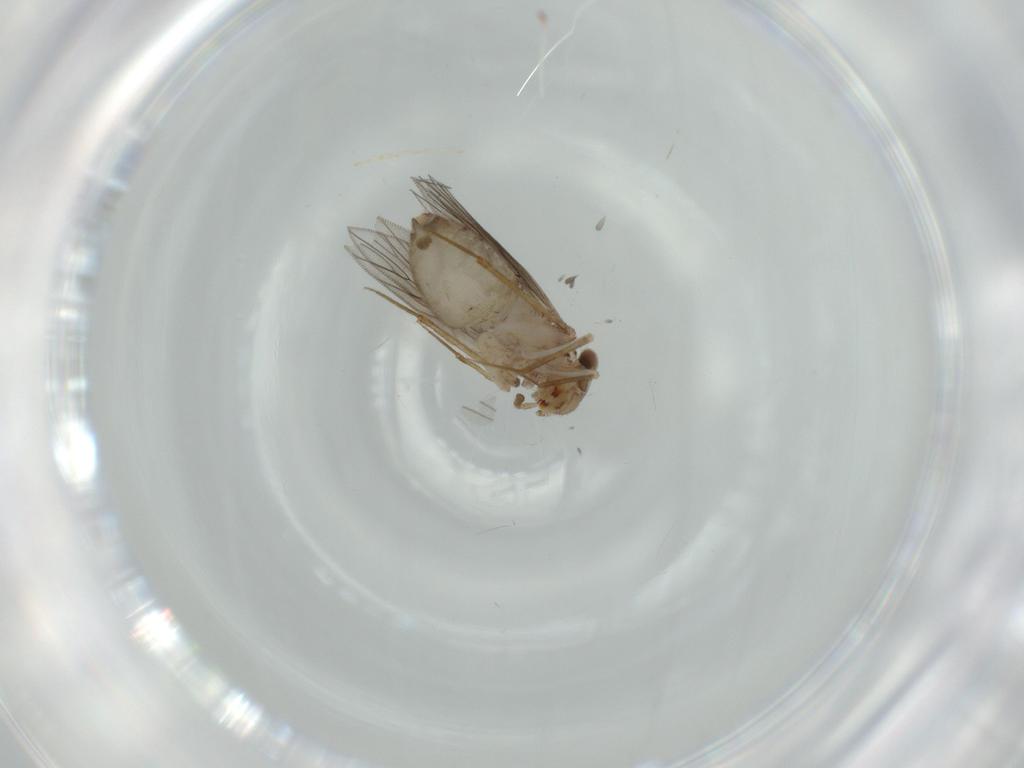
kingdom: Animalia
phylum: Arthropoda
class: Insecta
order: Psocodea
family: Lepidopsocidae
